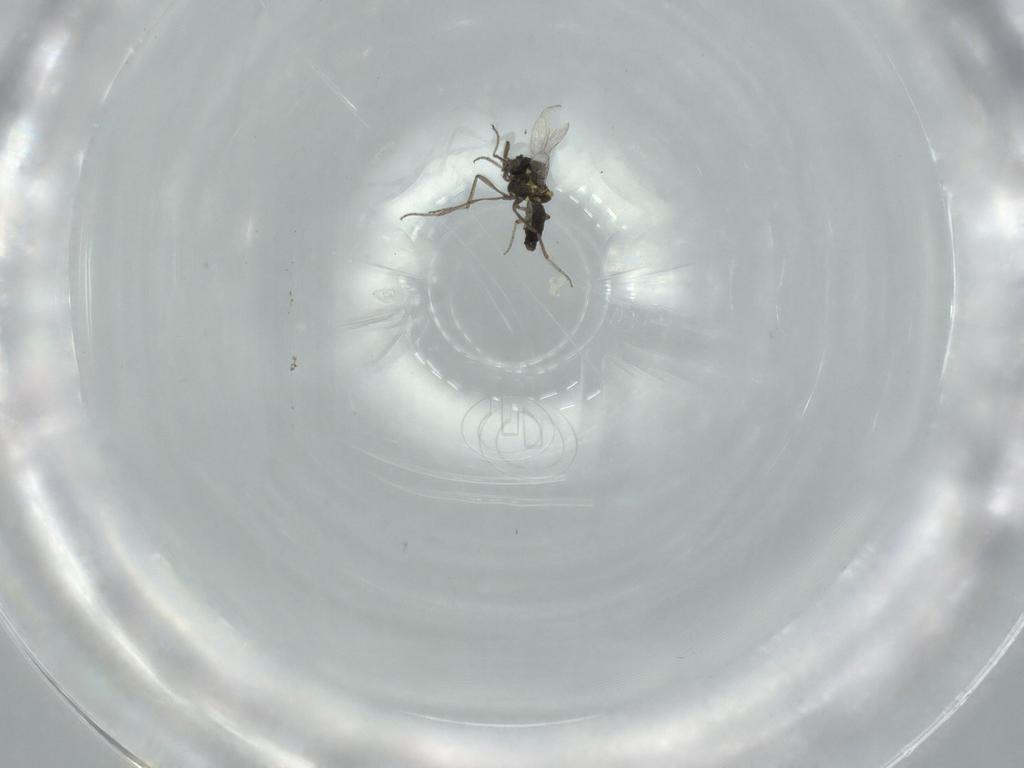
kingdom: Animalia
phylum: Arthropoda
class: Insecta
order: Diptera
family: Ceratopogonidae
